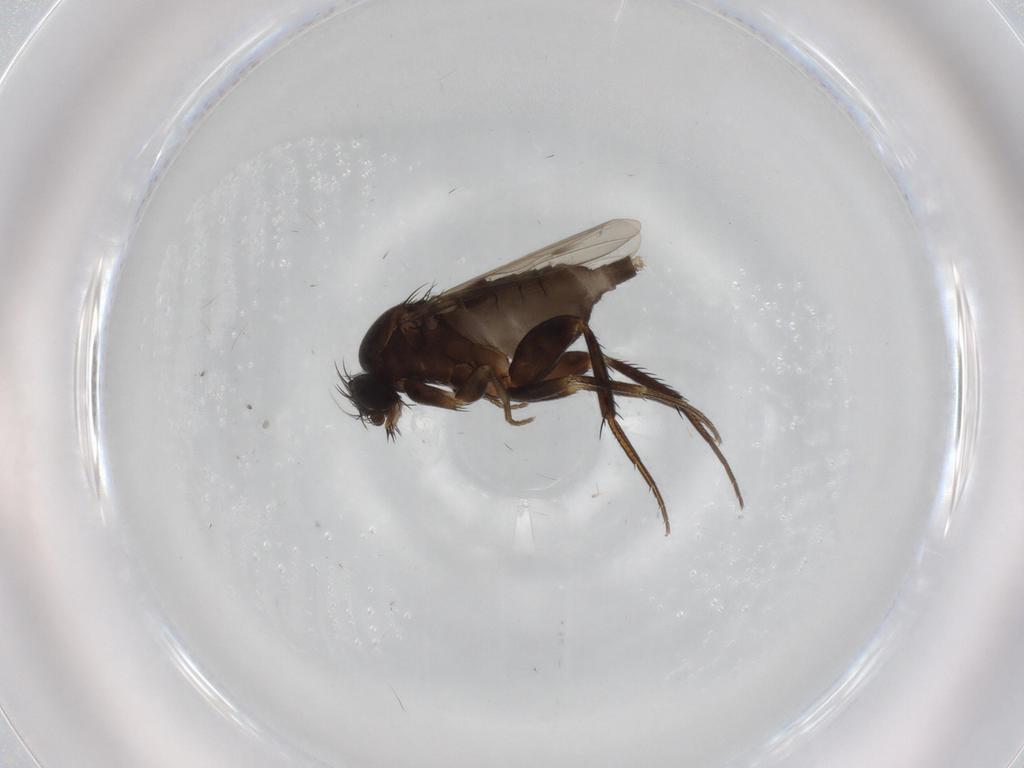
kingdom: Animalia
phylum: Arthropoda
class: Insecta
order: Diptera
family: Phoridae
